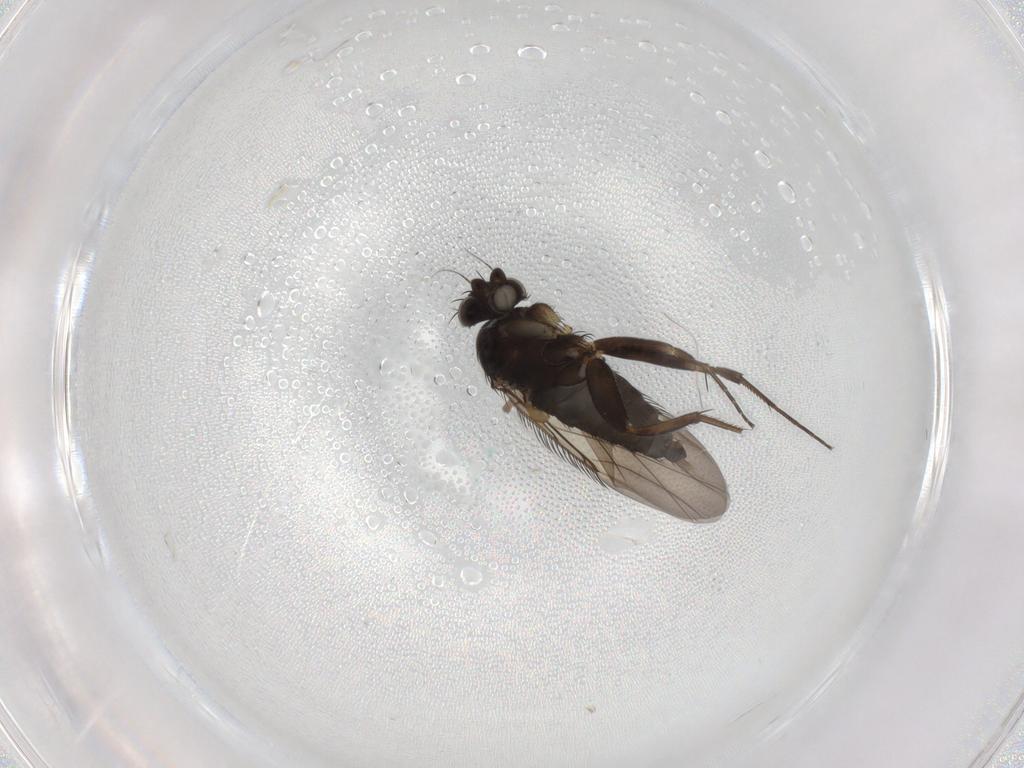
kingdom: Animalia
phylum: Arthropoda
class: Insecta
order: Diptera
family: Phoridae
